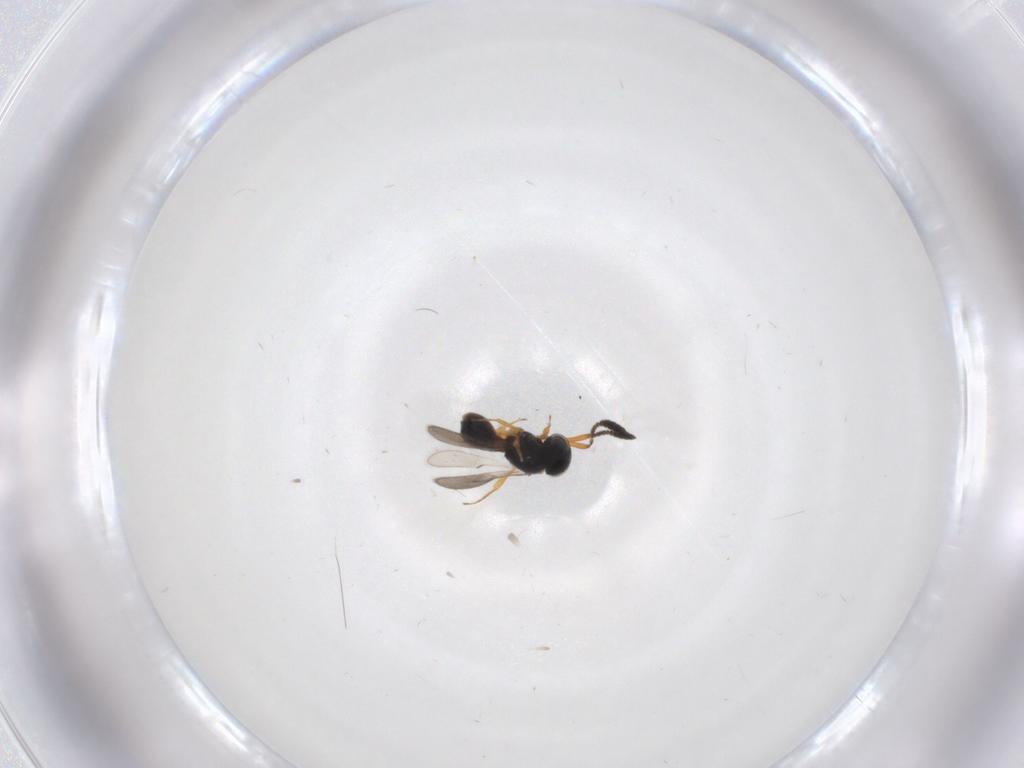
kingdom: Animalia
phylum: Arthropoda
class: Insecta
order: Hymenoptera
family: Scelionidae
